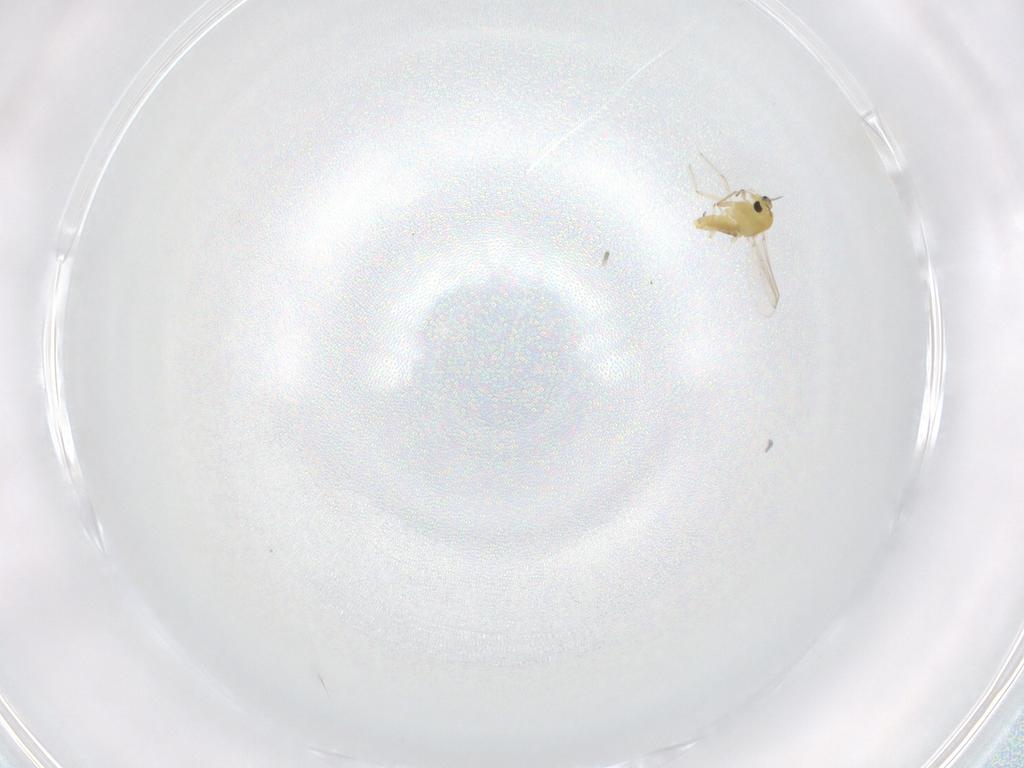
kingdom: Animalia
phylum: Arthropoda
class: Insecta
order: Diptera
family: Chironomidae
